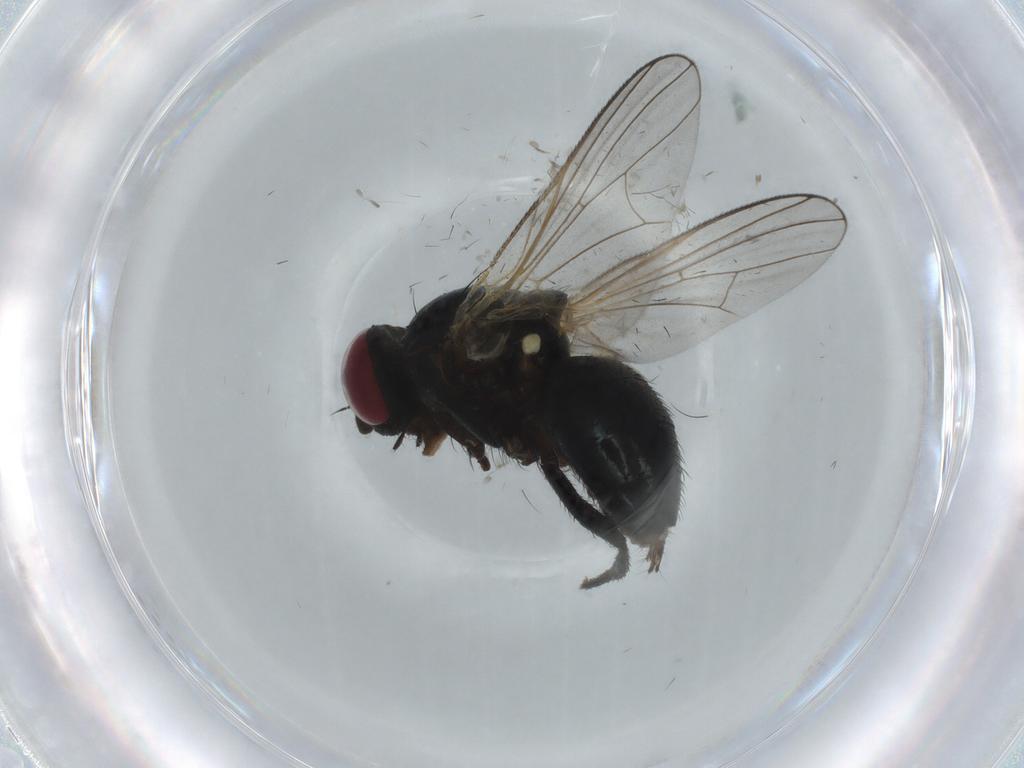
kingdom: Animalia
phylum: Arthropoda
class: Insecta
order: Diptera
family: Fannia
